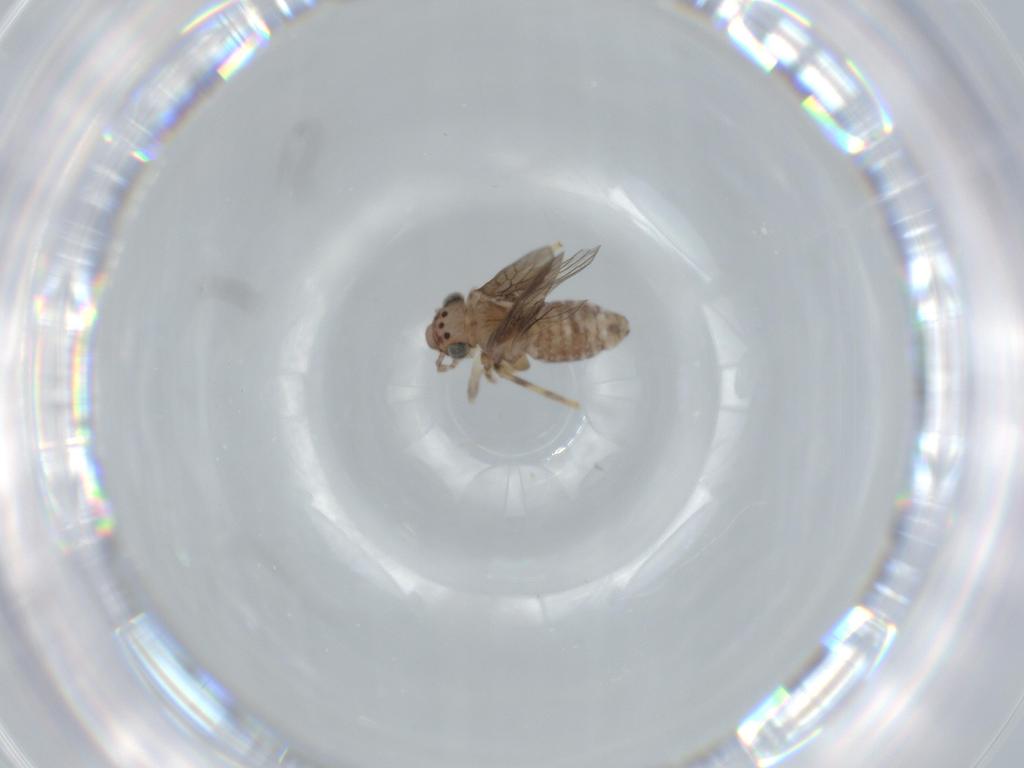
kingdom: Animalia
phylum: Arthropoda
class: Insecta
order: Psocodea
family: Lepidopsocidae
